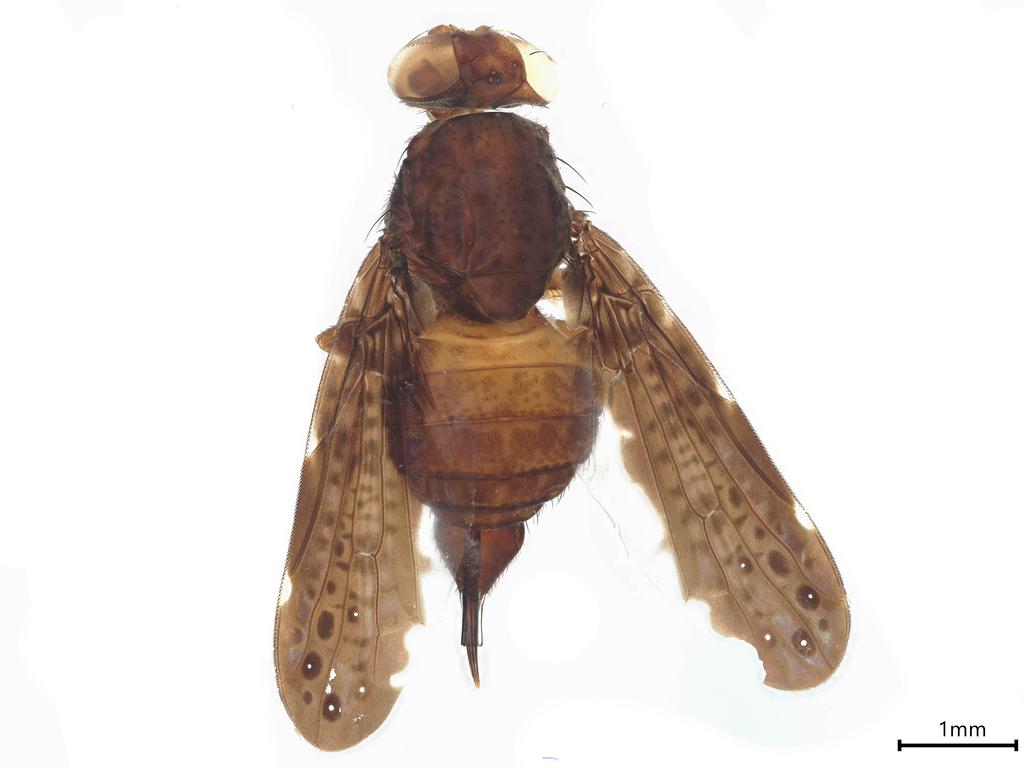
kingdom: Animalia
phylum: Arthropoda
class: Insecta
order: Diptera
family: Ulidiidae
